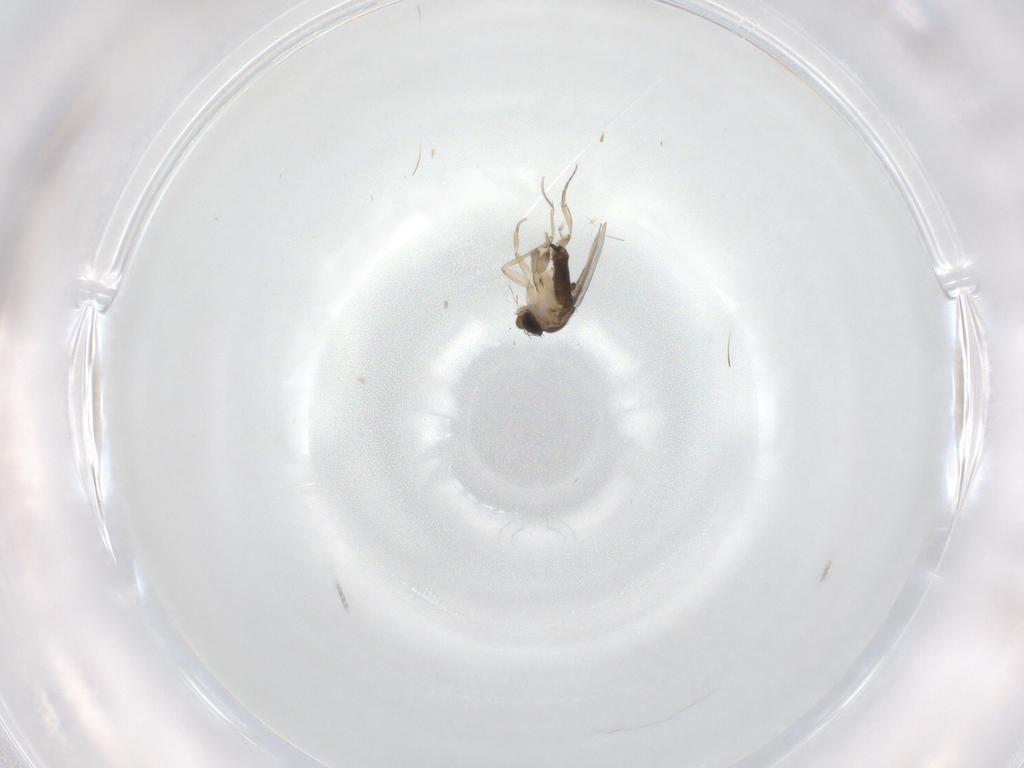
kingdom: Animalia
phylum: Arthropoda
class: Insecta
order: Diptera
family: Phoridae
